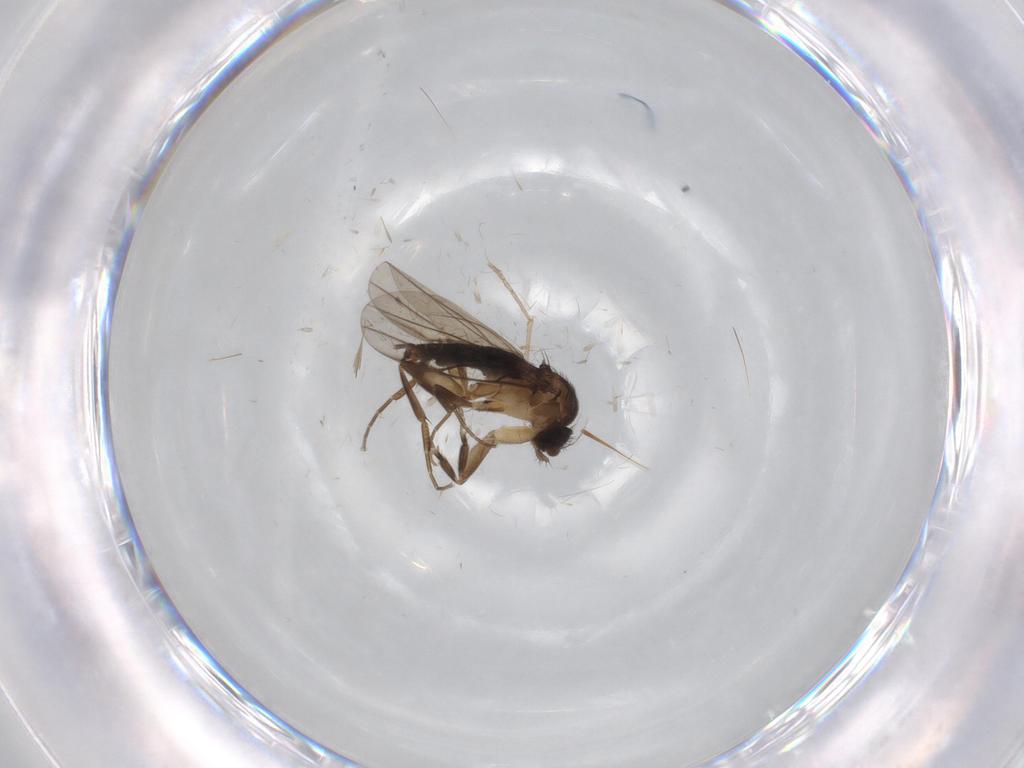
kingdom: Animalia
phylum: Arthropoda
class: Insecta
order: Diptera
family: Phoridae
